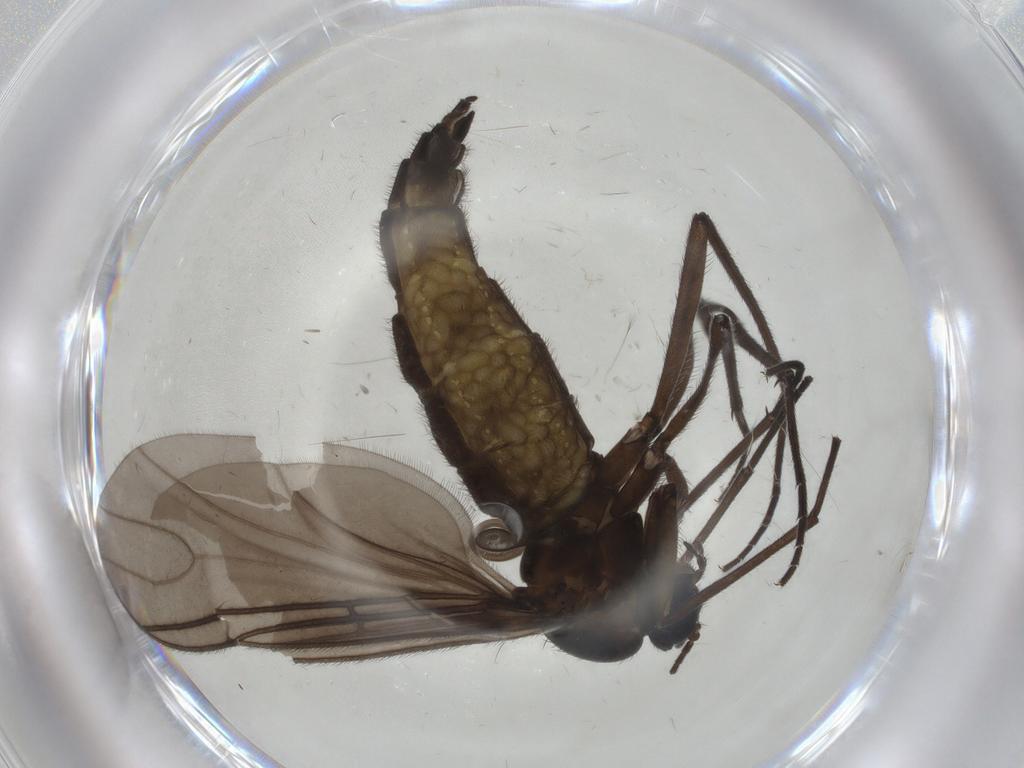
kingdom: Animalia
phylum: Arthropoda
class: Insecta
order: Diptera
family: Sciaridae
